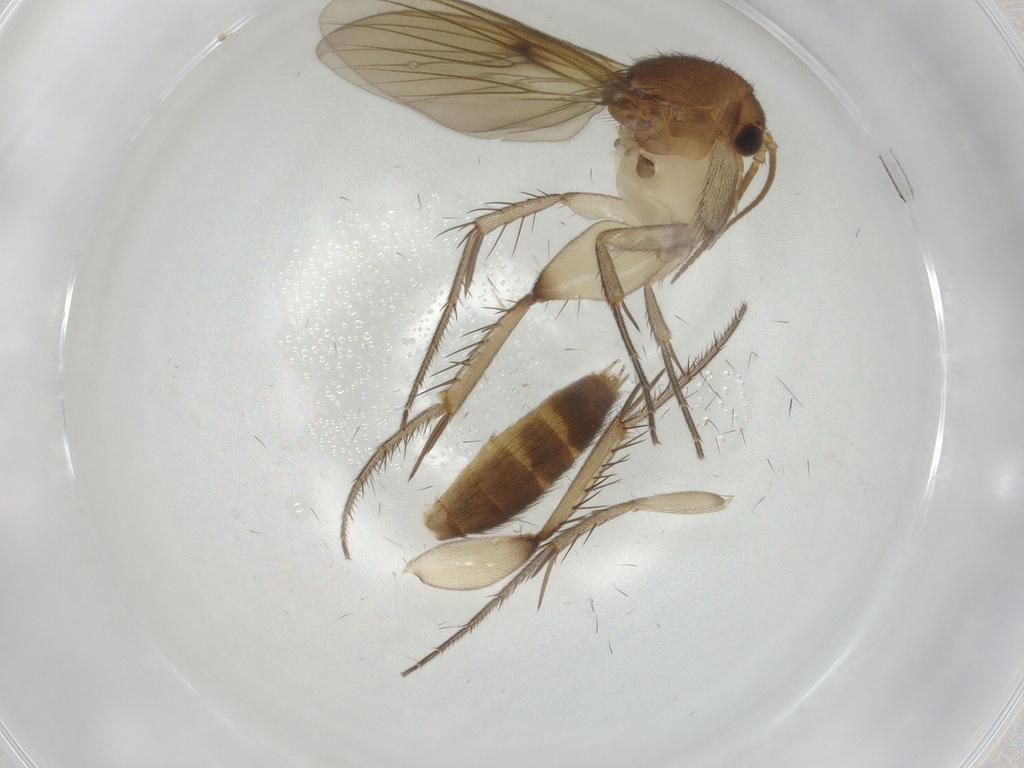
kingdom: Animalia
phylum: Arthropoda
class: Insecta
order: Diptera
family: Mycetophilidae
